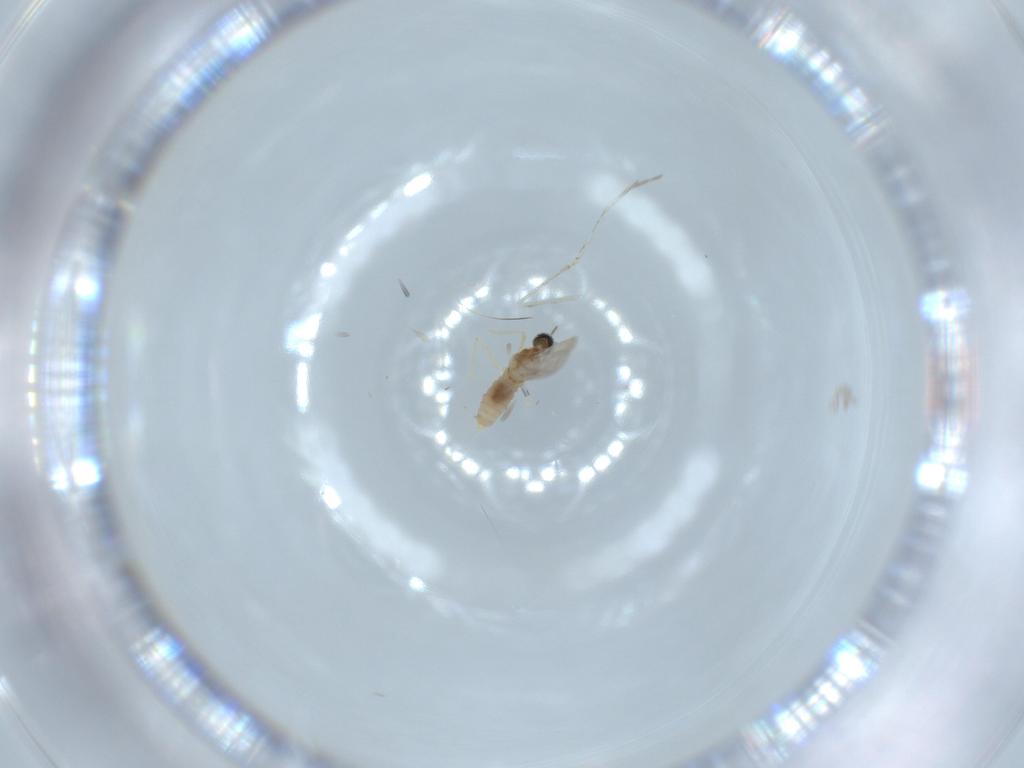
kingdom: Animalia
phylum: Arthropoda
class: Insecta
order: Diptera
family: Cecidomyiidae
